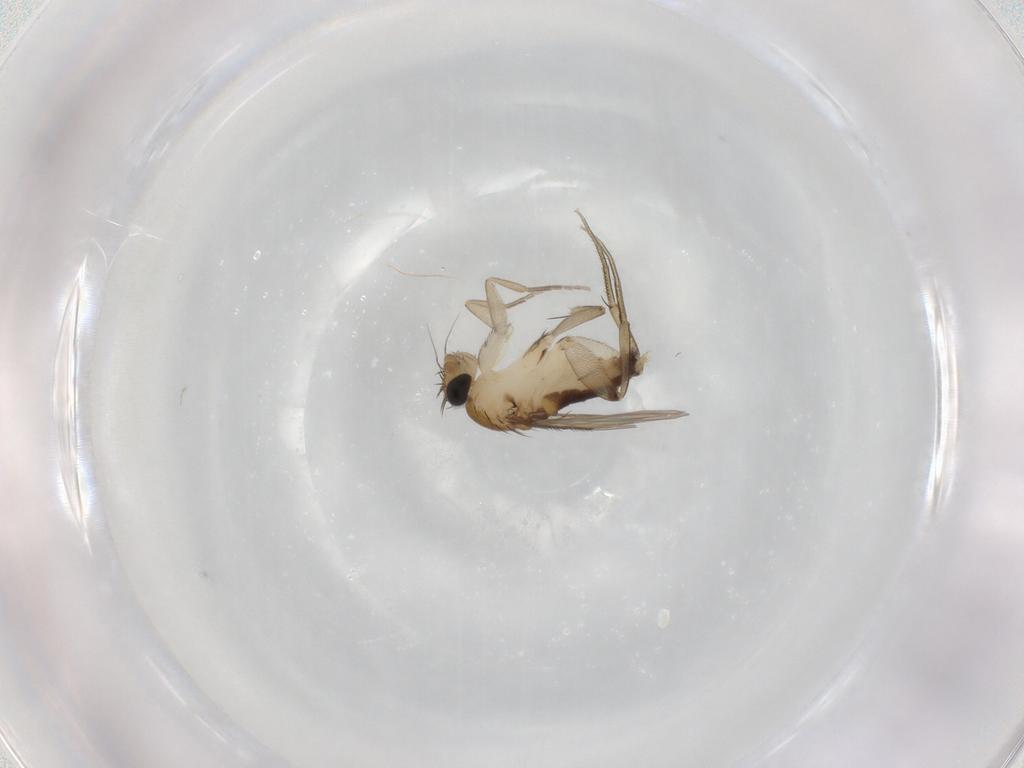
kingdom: Animalia
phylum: Arthropoda
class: Insecta
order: Diptera
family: Phoridae
